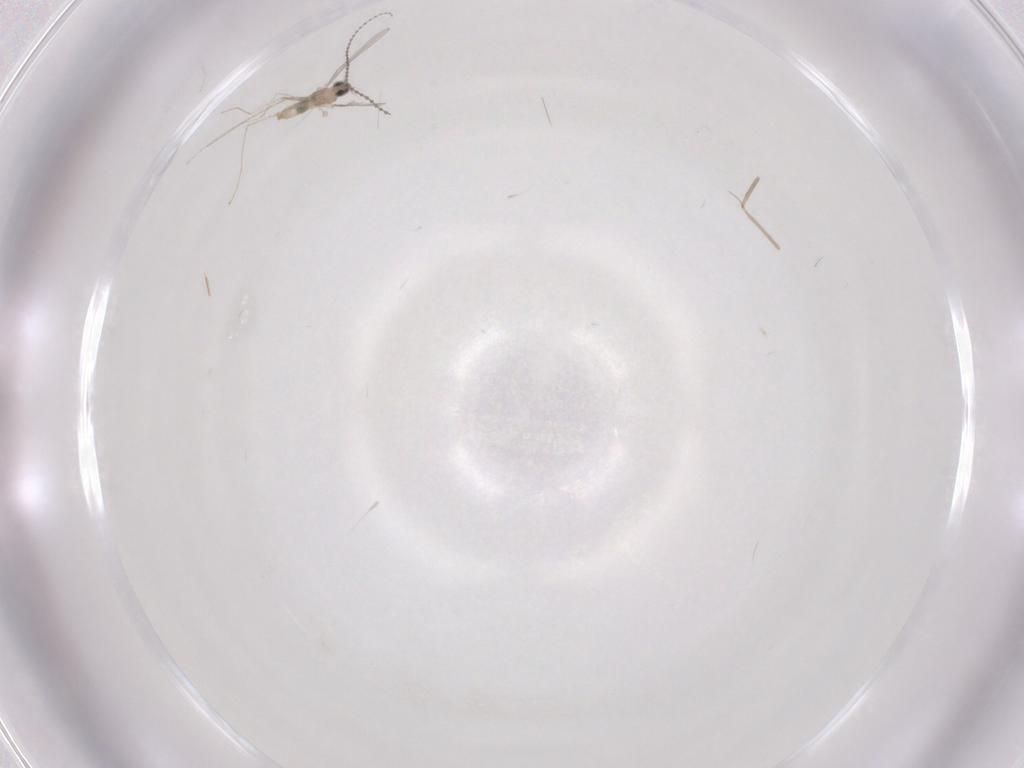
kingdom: Animalia
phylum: Arthropoda
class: Insecta
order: Diptera
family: Cecidomyiidae
